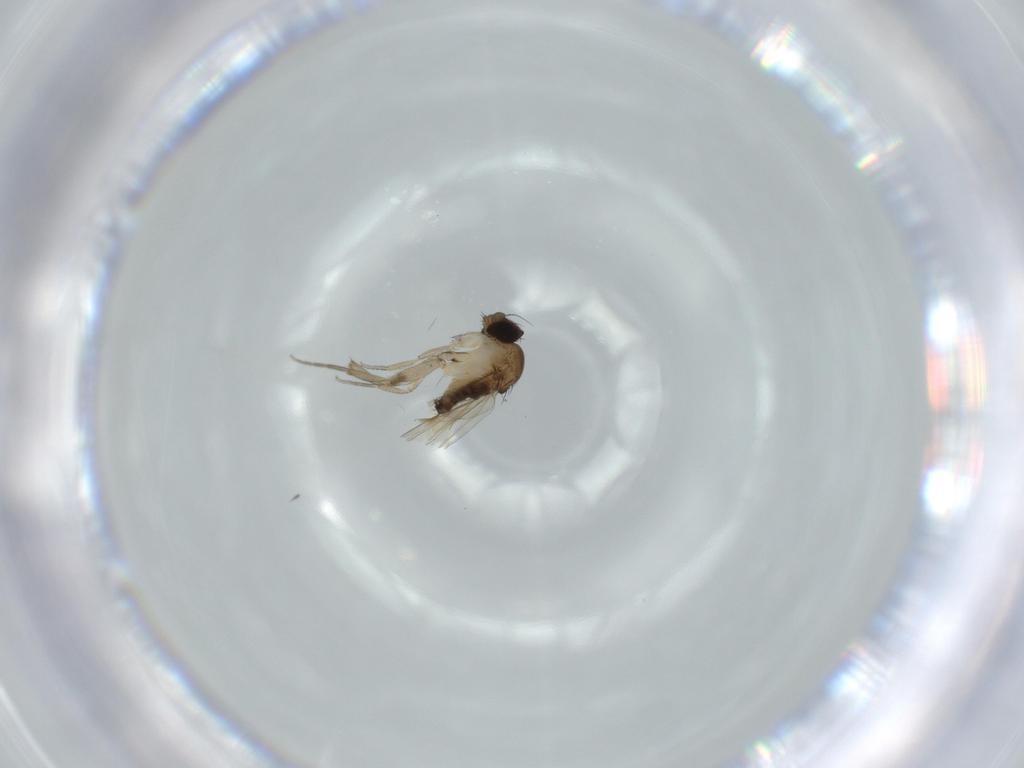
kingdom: Animalia
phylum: Arthropoda
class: Insecta
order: Diptera
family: Phoridae
